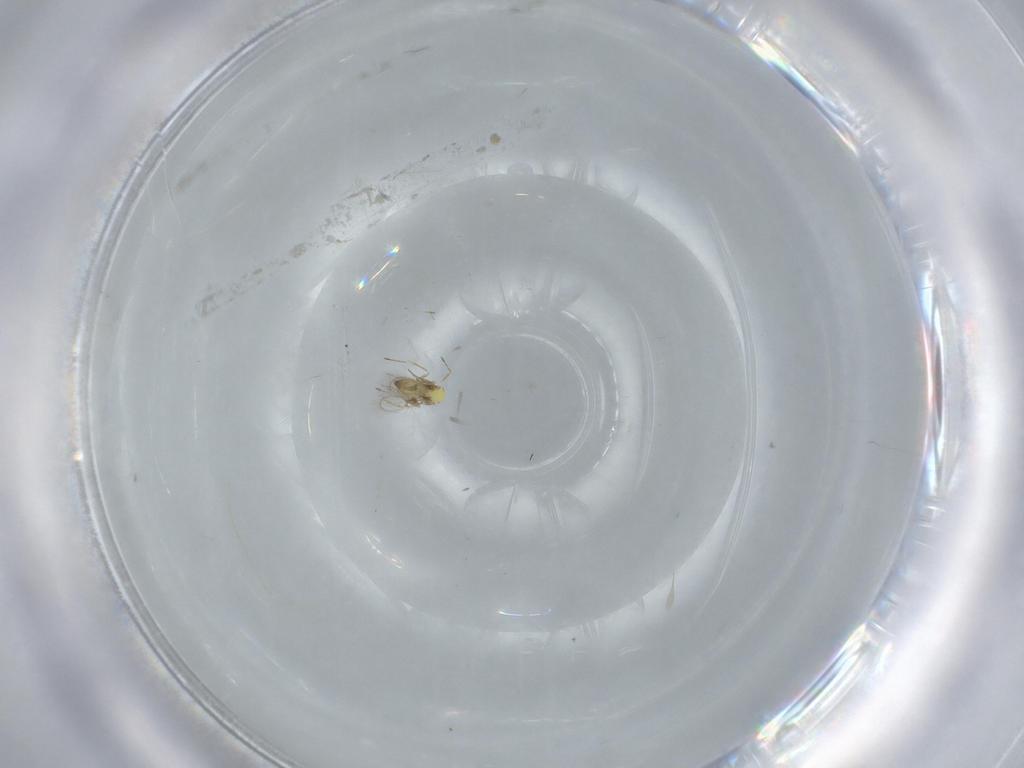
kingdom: Animalia
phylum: Arthropoda
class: Insecta
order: Hymenoptera
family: Trichogrammatidae
